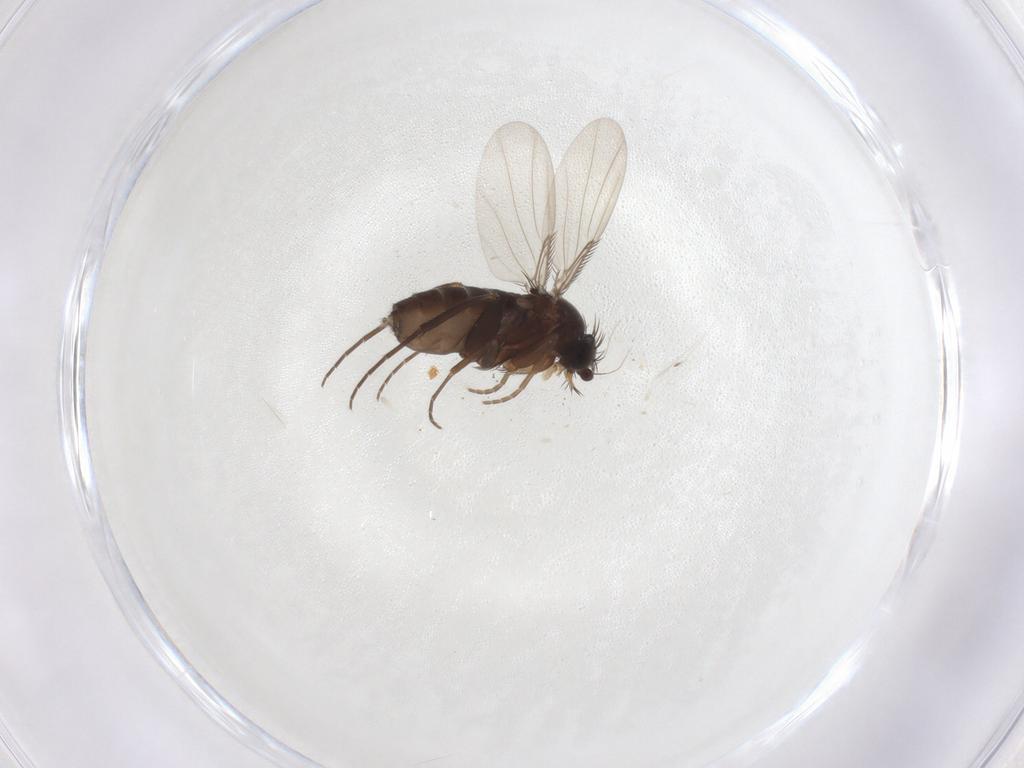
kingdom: Animalia
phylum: Arthropoda
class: Insecta
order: Diptera
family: Phoridae
